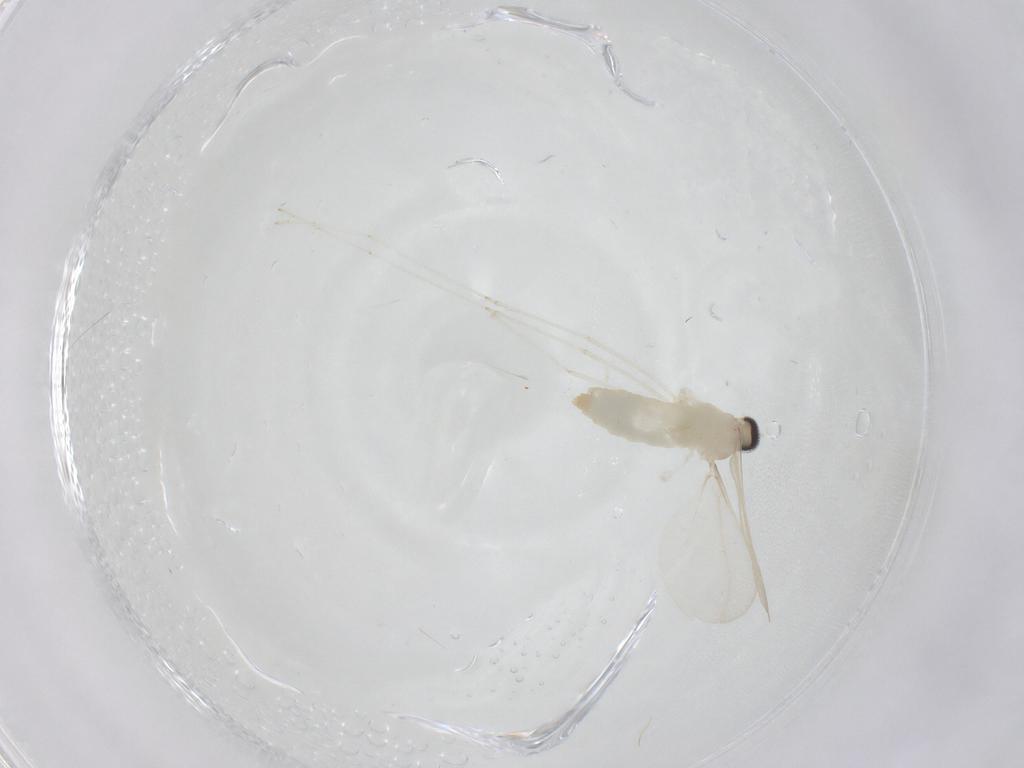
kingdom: Animalia
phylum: Arthropoda
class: Insecta
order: Diptera
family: Cecidomyiidae
